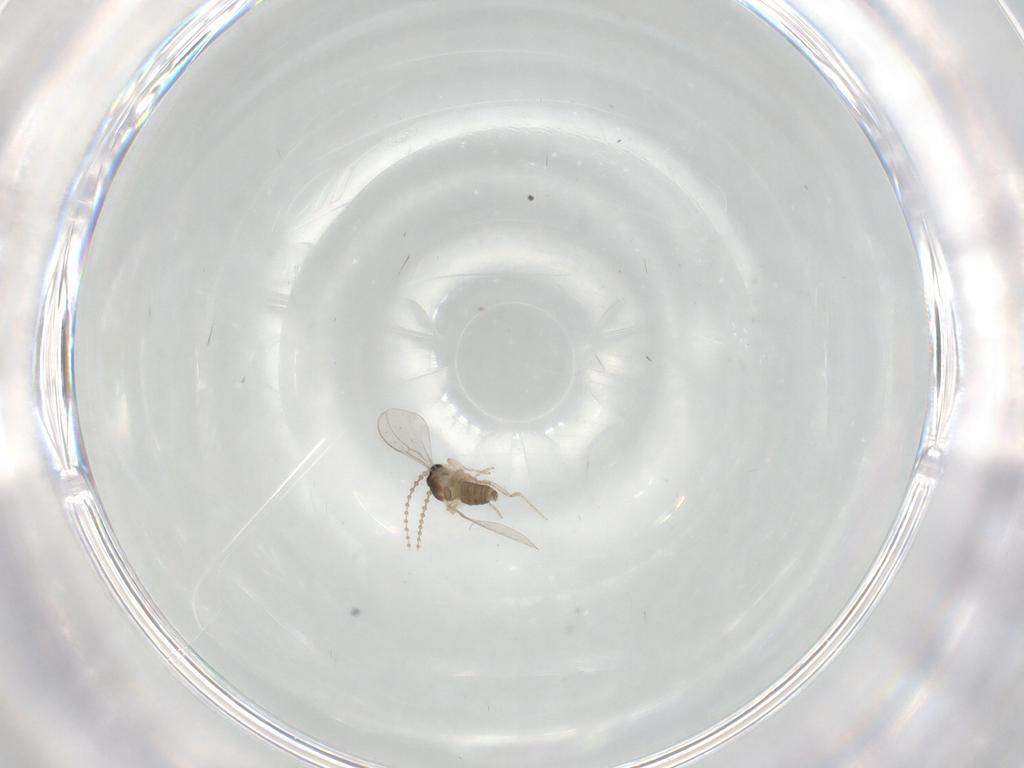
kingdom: Animalia
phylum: Arthropoda
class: Insecta
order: Diptera
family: Cecidomyiidae
